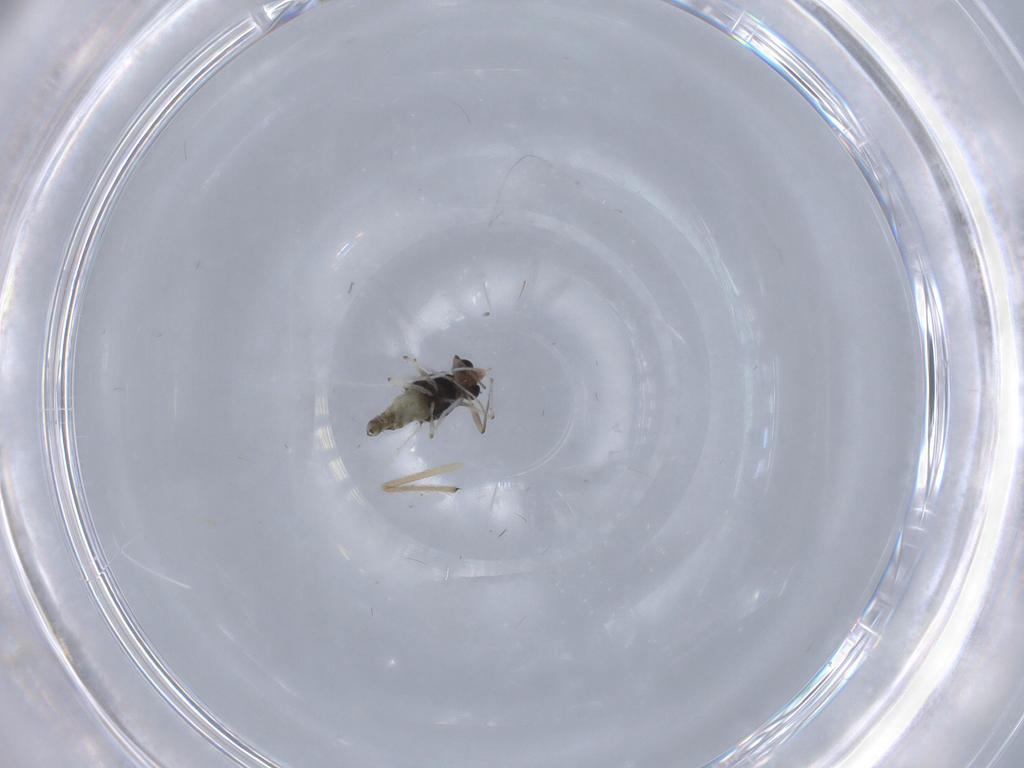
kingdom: Animalia
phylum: Arthropoda
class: Insecta
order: Diptera
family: Chironomidae
